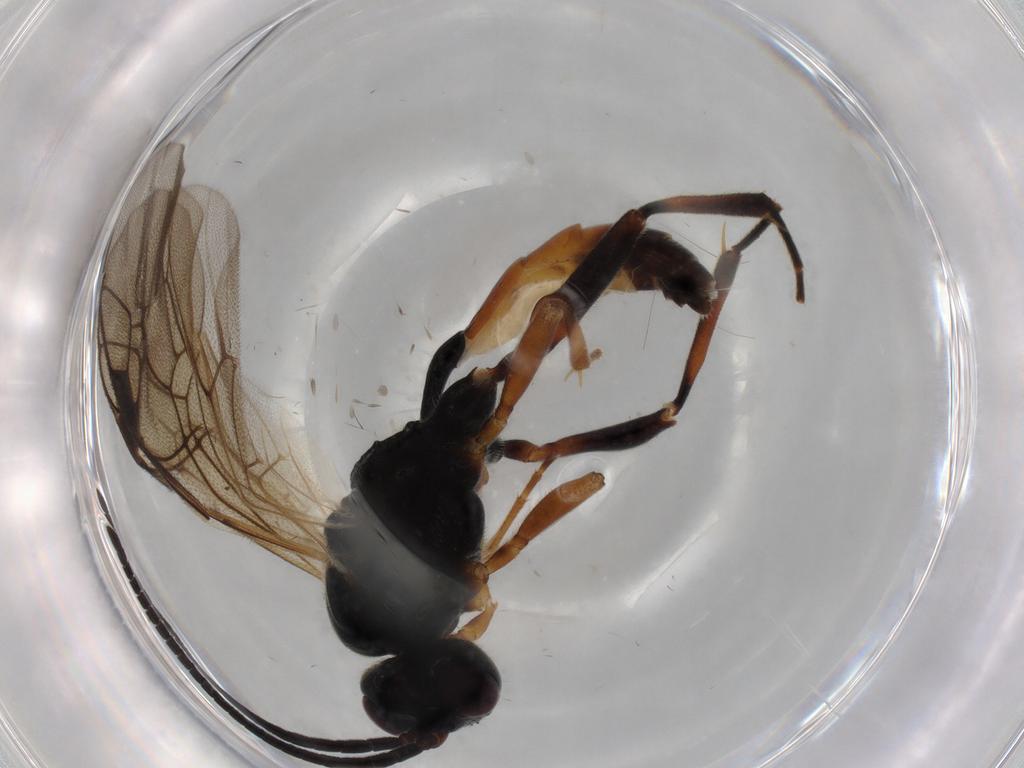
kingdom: Animalia
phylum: Arthropoda
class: Insecta
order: Hymenoptera
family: Ichneumonidae
